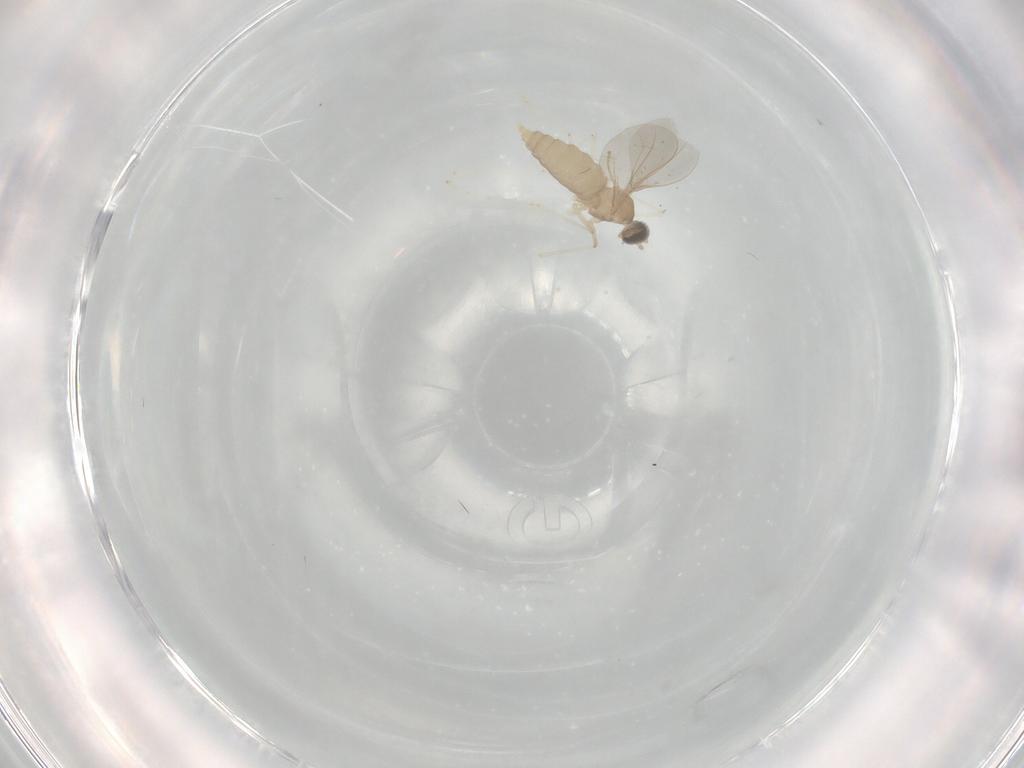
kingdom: Animalia
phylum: Arthropoda
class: Insecta
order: Diptera
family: Cecidomyiidae
